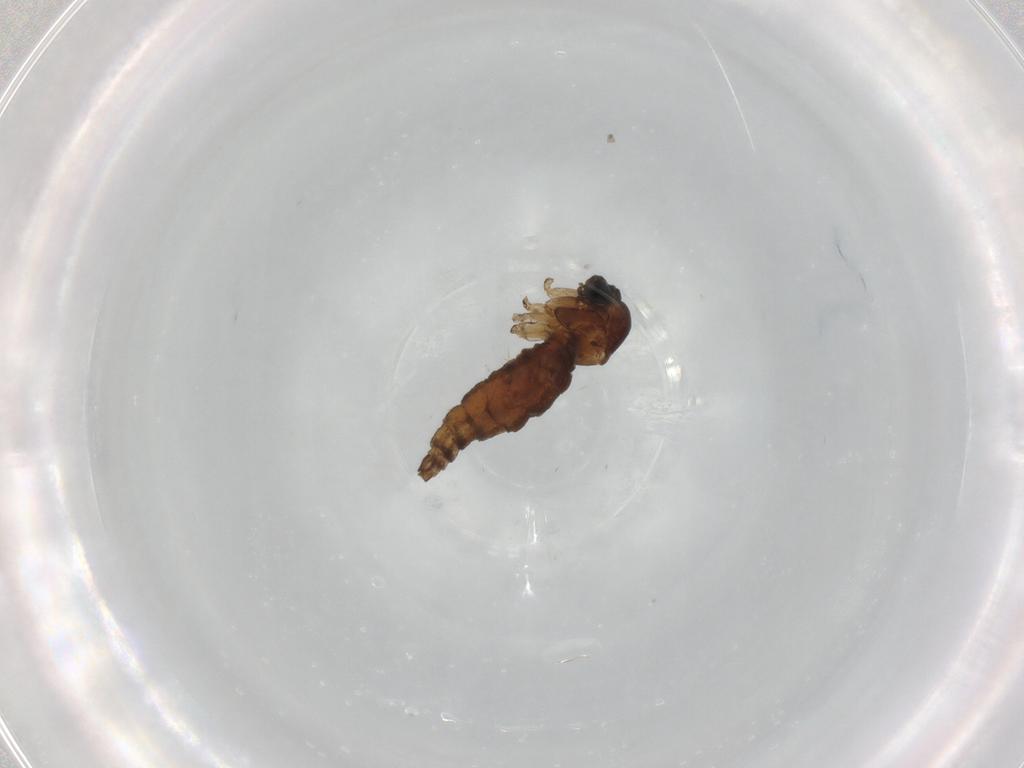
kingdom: Animalia
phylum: Arthropoda
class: Insecta
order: Diptera
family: Sciaridae
